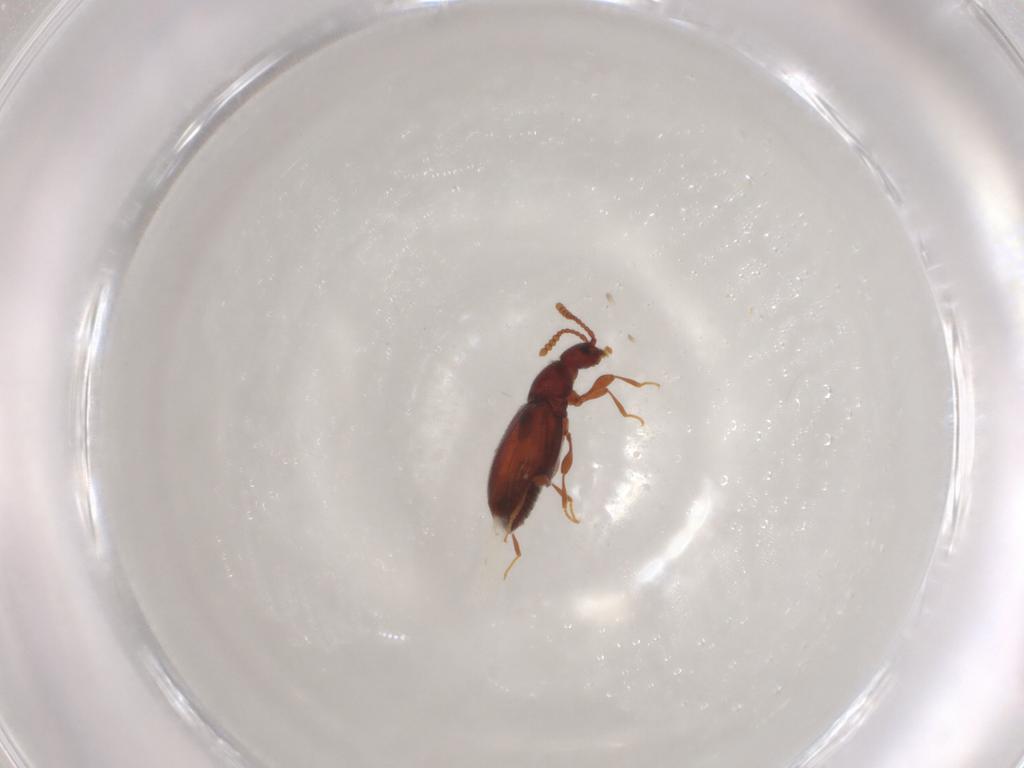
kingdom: Animalia
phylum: Arthropoda
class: Insecta
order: Coleoptera
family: Staphylinidae
